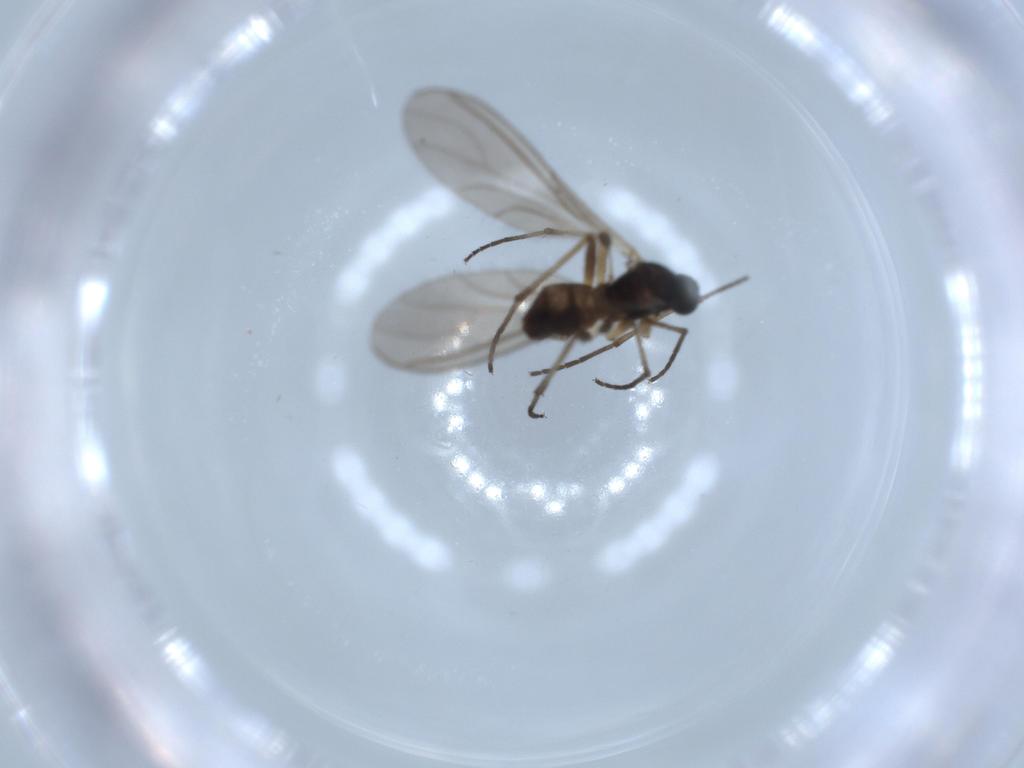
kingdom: Animalia
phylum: Arthropoda
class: Insecta
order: Diptera
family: Sciaridae
